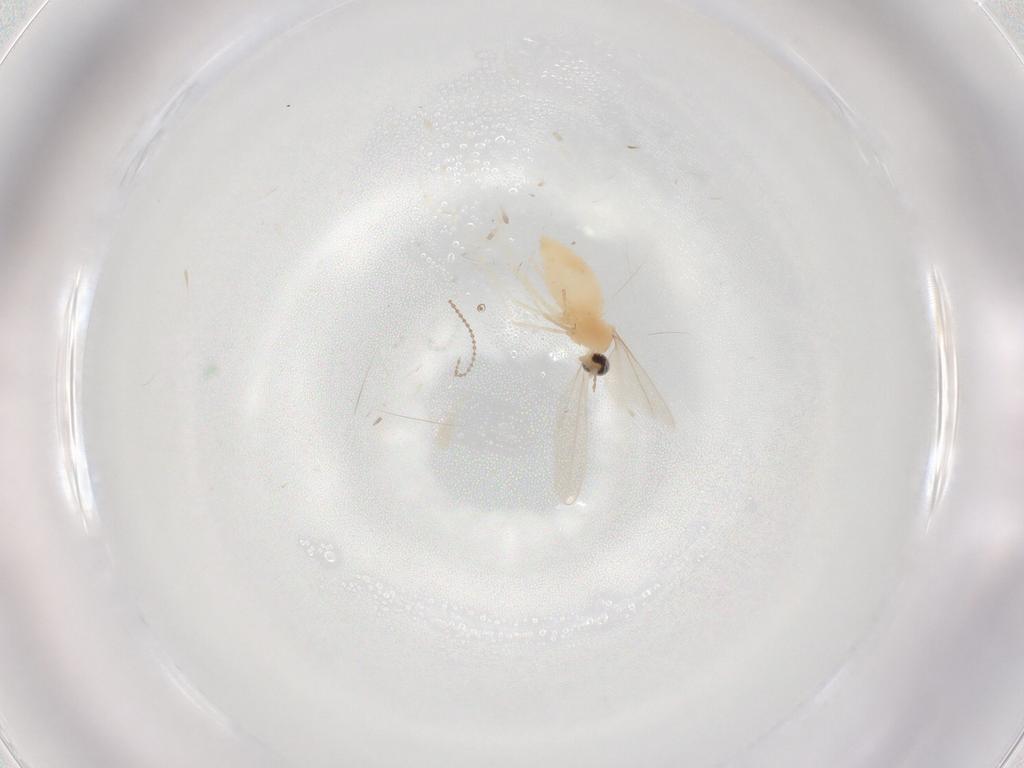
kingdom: Animalia
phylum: Arthropoda
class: Insecta
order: Diptera
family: Cecidomyiidae
